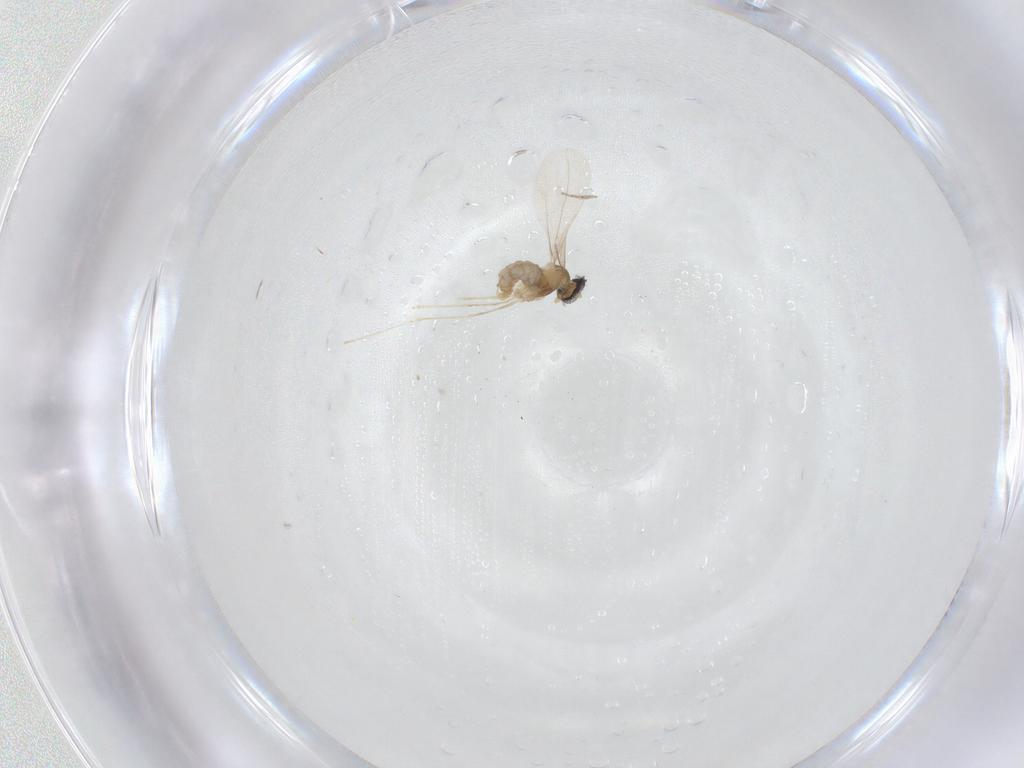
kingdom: Animalia
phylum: Arthropoda
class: Insecta
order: Diptera
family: Cecidomyiidae
